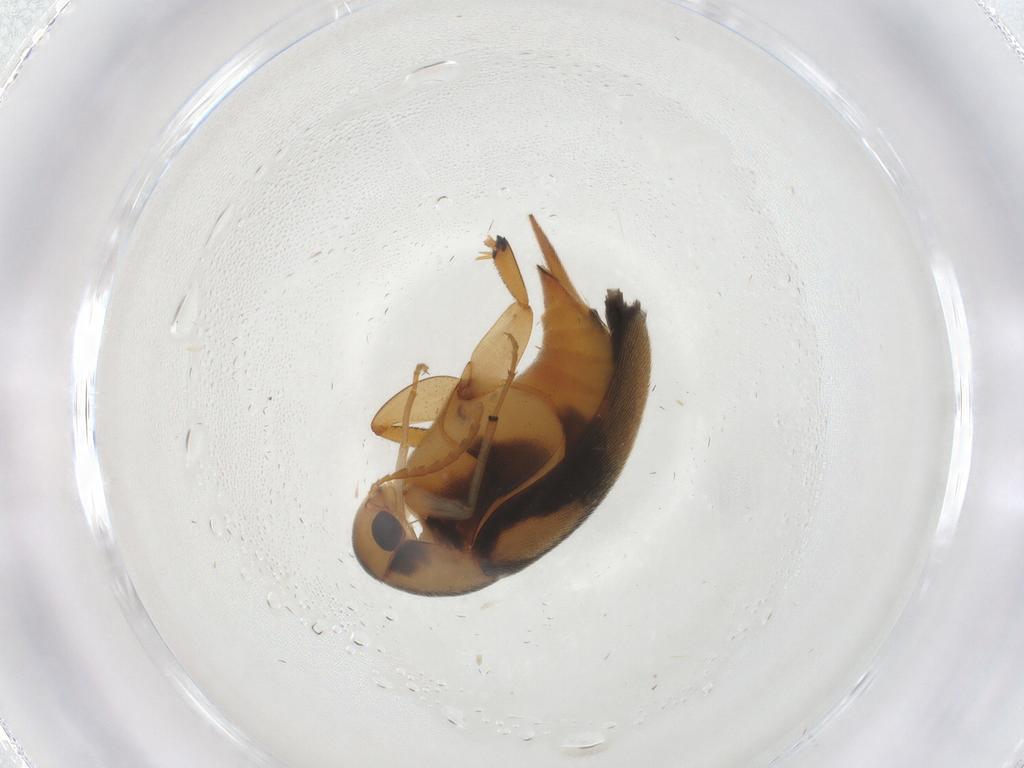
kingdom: Animalia
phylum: Arthropoda
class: Insecta
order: Coleoptera
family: Mordellidae
